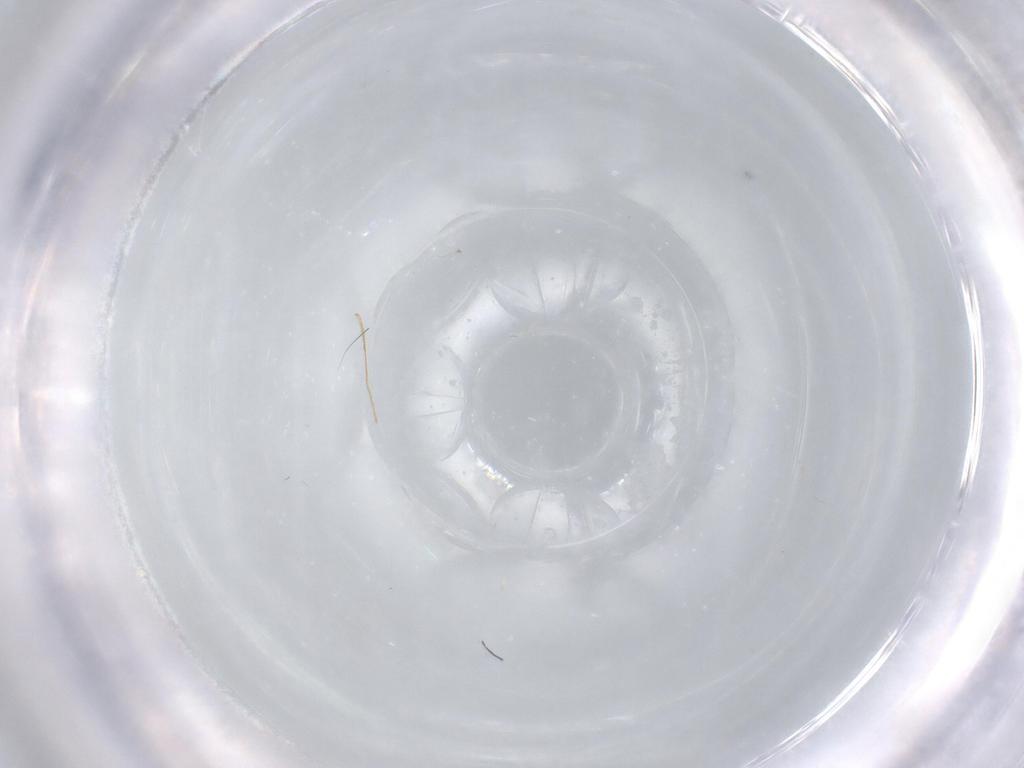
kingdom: Animalia
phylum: Arthropoda
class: Insecta
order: Diptera
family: Cecidomyiidae
